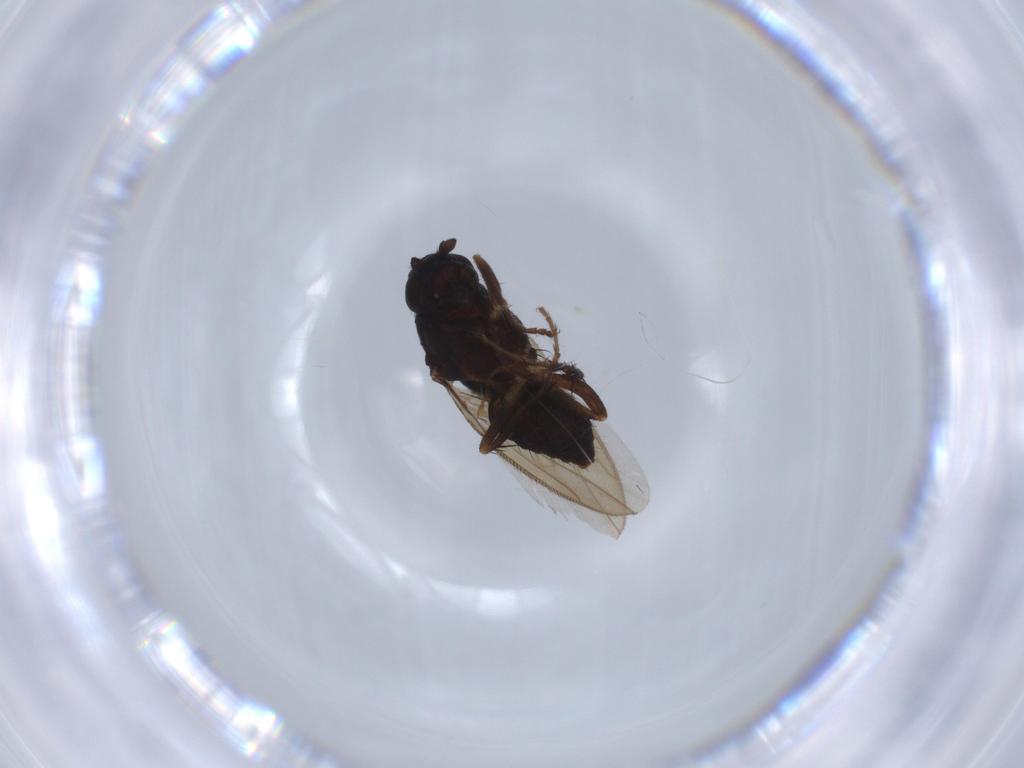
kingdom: Animalia
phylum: Arthropoda
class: Insecta
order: Diptera
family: Sphaeroceridae
